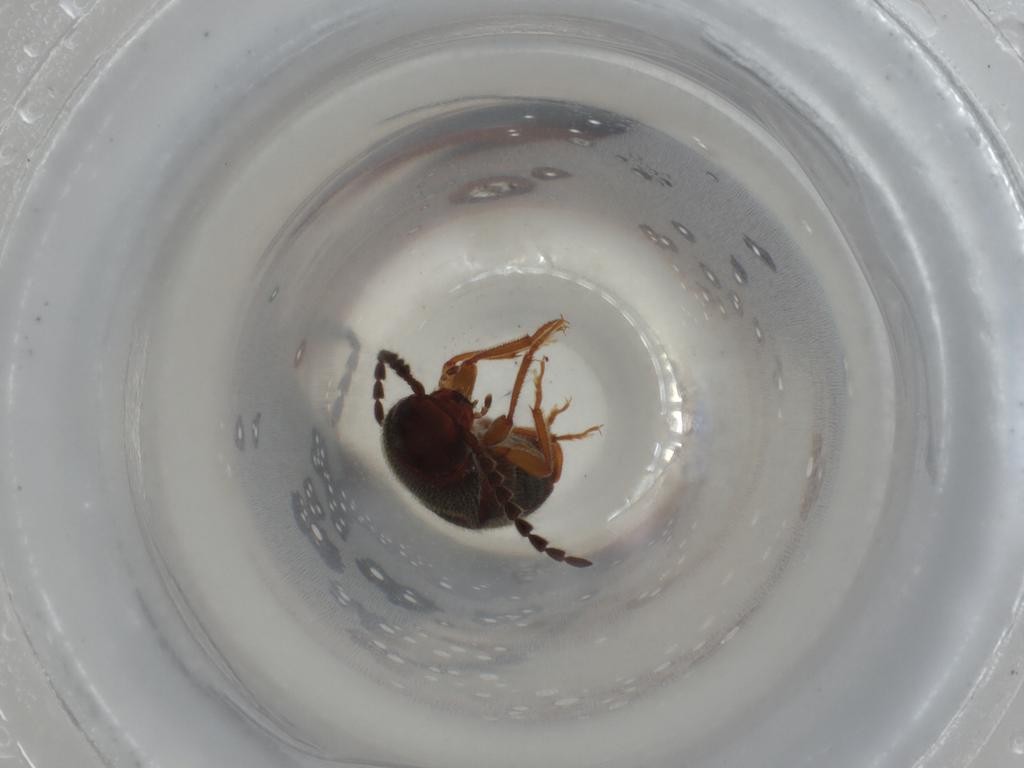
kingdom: Animalia
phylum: Arthropoda
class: Insecta
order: Coleoptera
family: Elateridae
